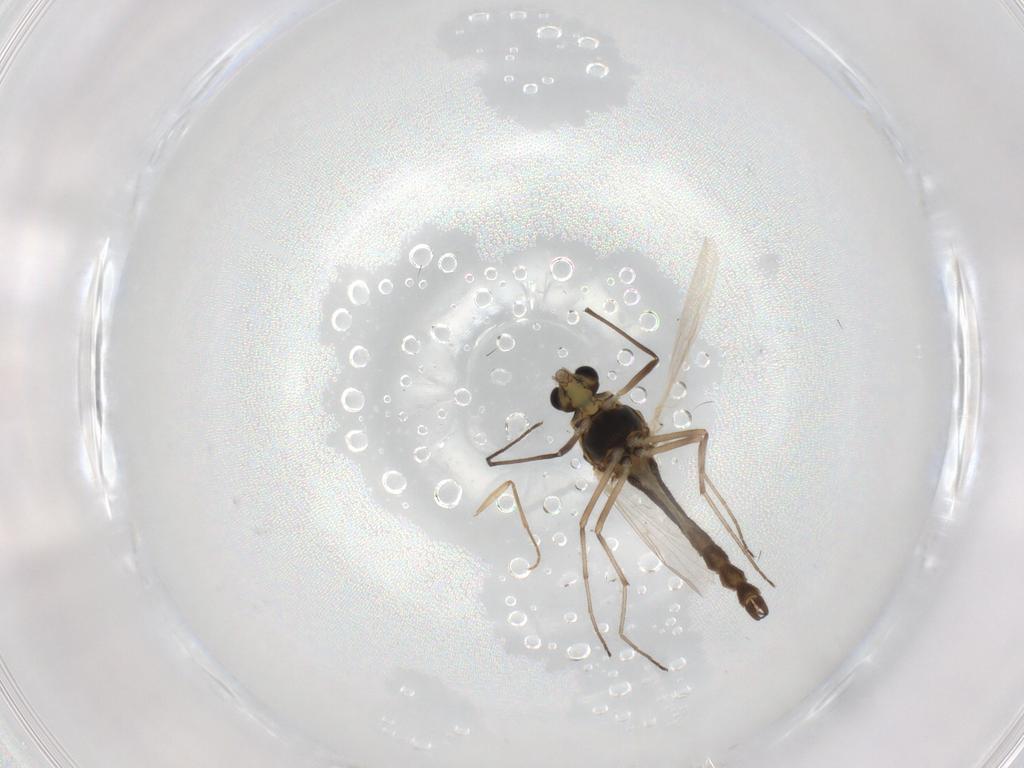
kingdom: Animalia
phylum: Arthropoda
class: Insecta
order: Diptera
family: Chironomidae
